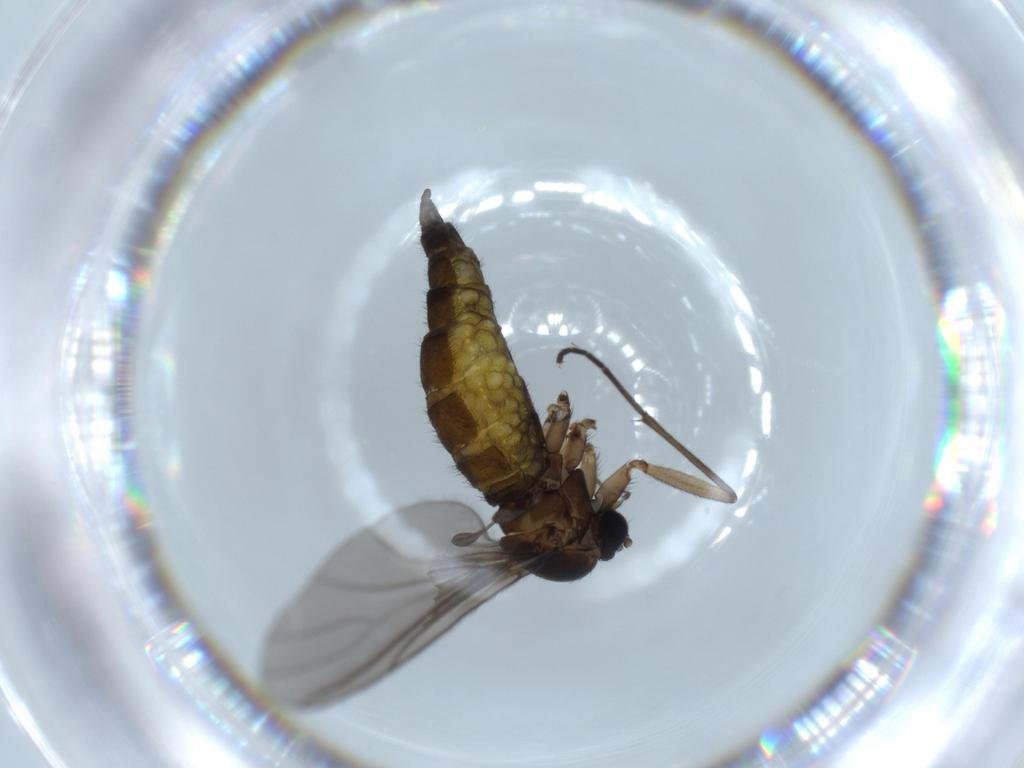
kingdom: Animalia
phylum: Arthropoda
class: Insecta
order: Diptera
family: Sciaridae
